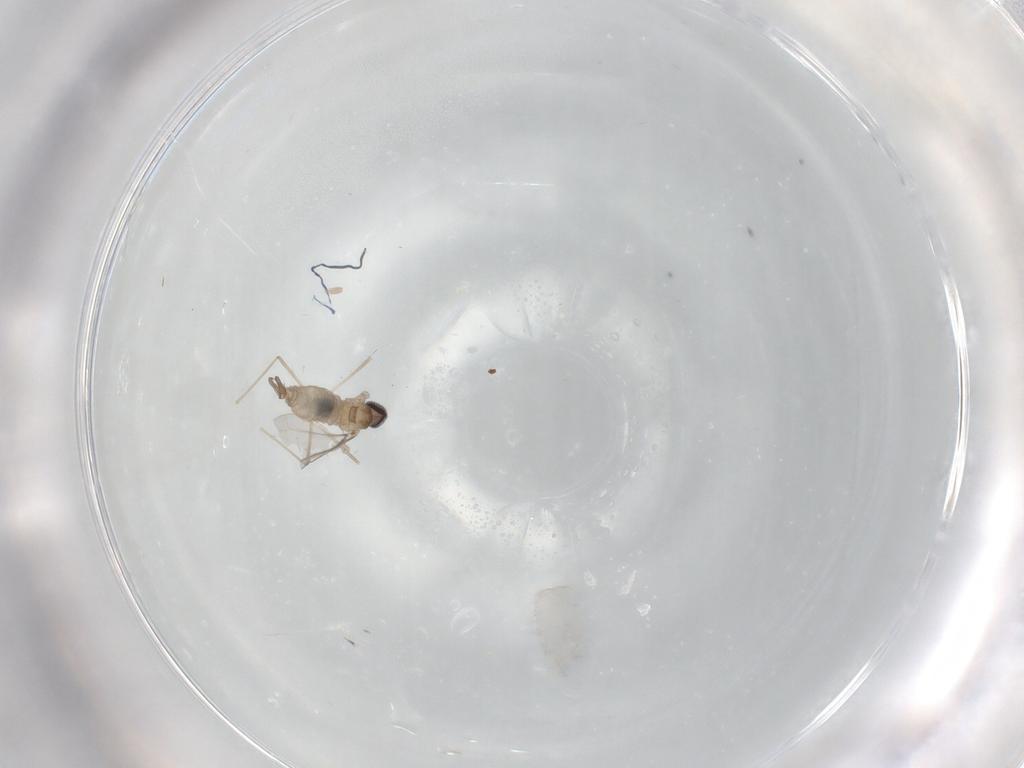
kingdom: Animalia
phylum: Arthropoda
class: Insecta
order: Diptera
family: Cecidomyiidae
